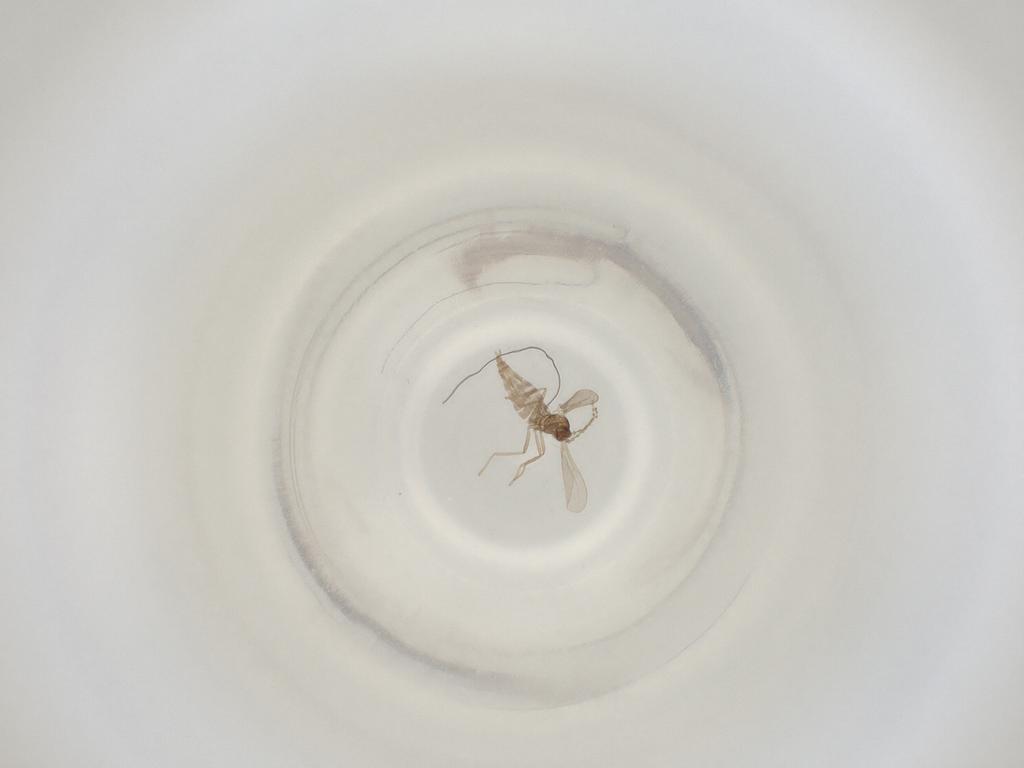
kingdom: Animalia
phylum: Arthropoda
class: Insecta
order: Diptera
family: Cecidomyiidae
